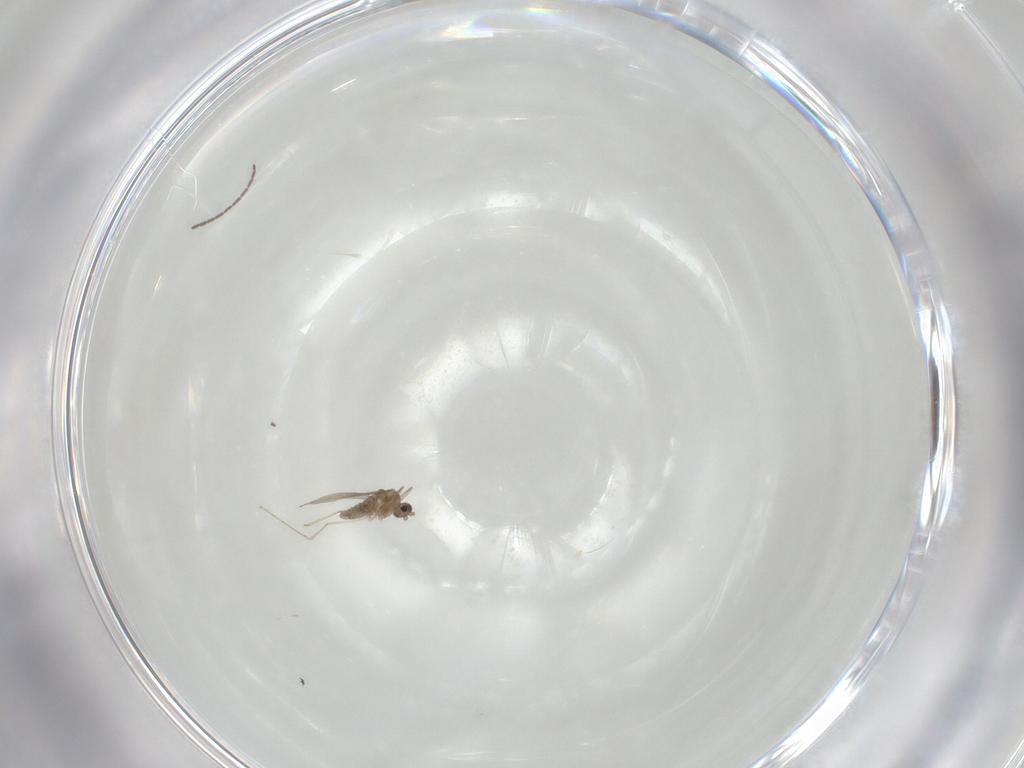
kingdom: Animalia
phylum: Arthropoda
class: Insecta
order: Diptera
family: Cecidomyiidae
